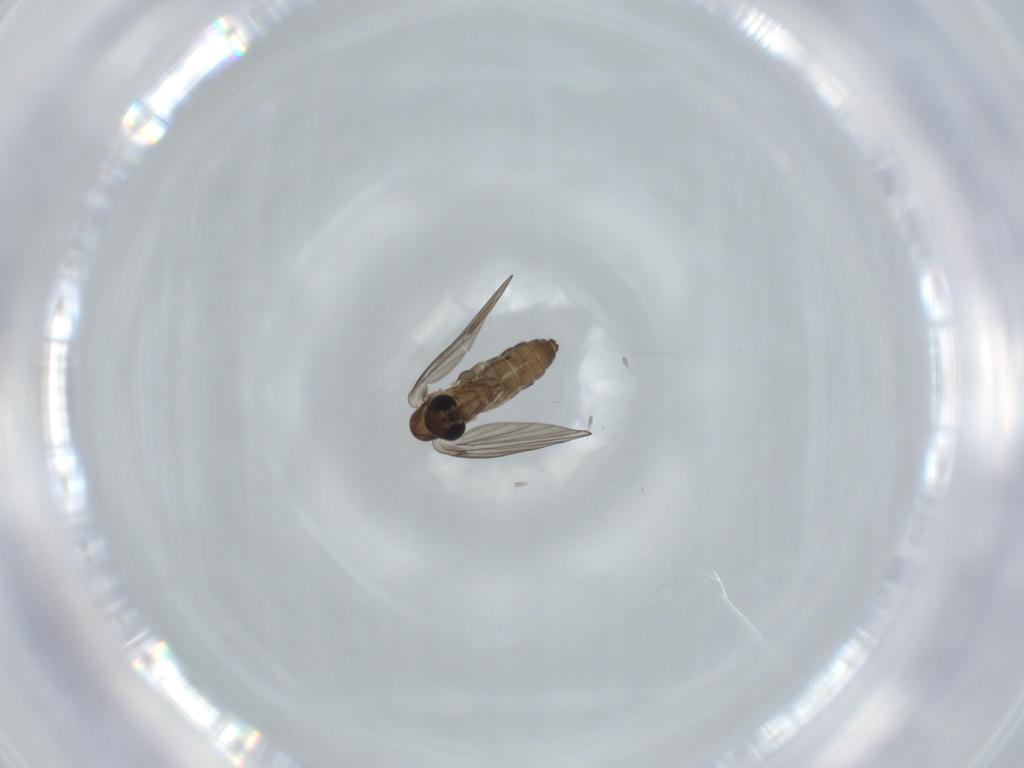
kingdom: Animalia
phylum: Arthropoda
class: Insecta
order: Diptera
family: Psychodidae
